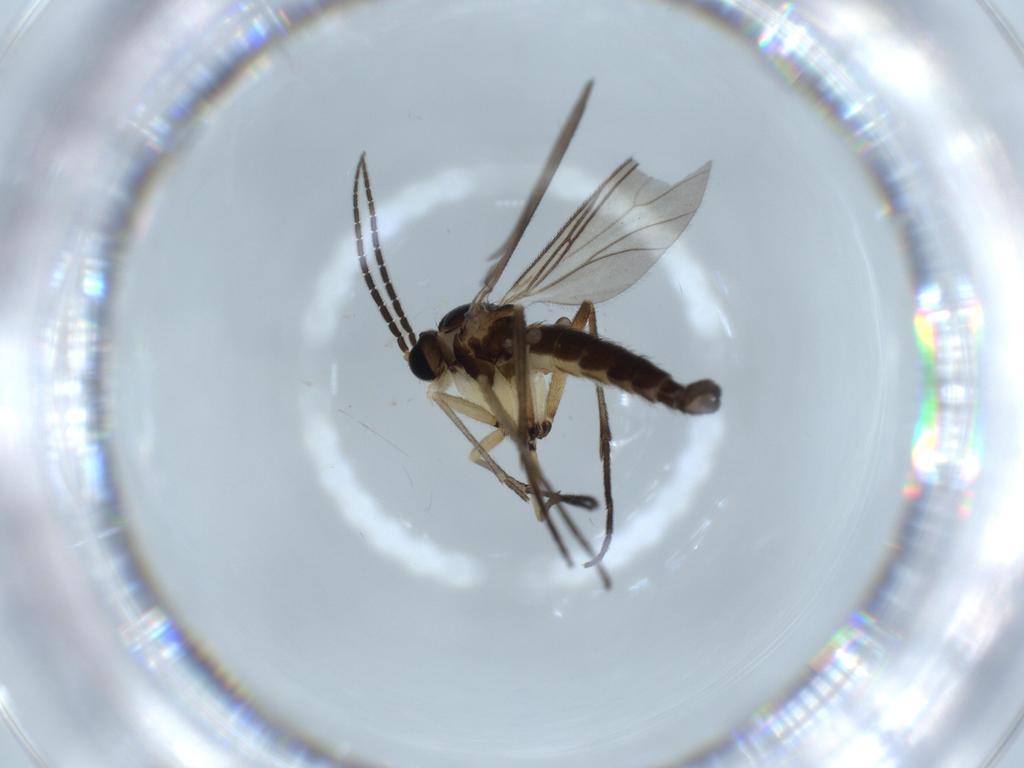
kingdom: Animalia
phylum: Arthropoda
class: Insecta
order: Diptera
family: Sciaridae
